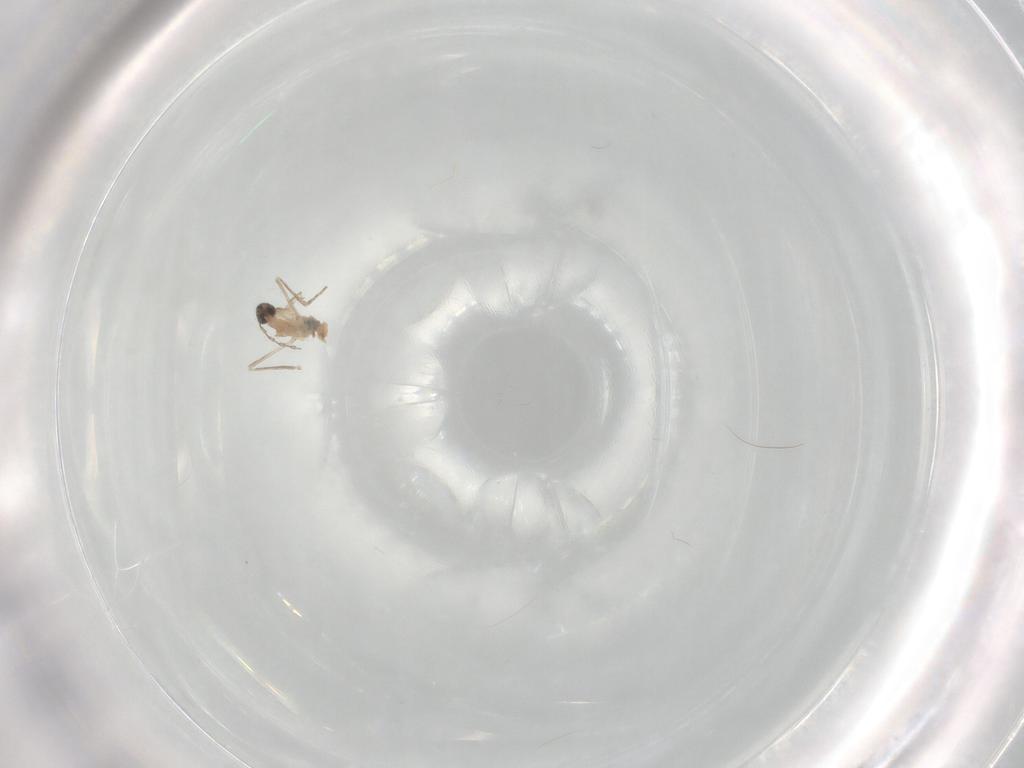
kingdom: Animalia
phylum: Arthropoda
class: Insecta
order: Diptera
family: Cecidomyiidae
